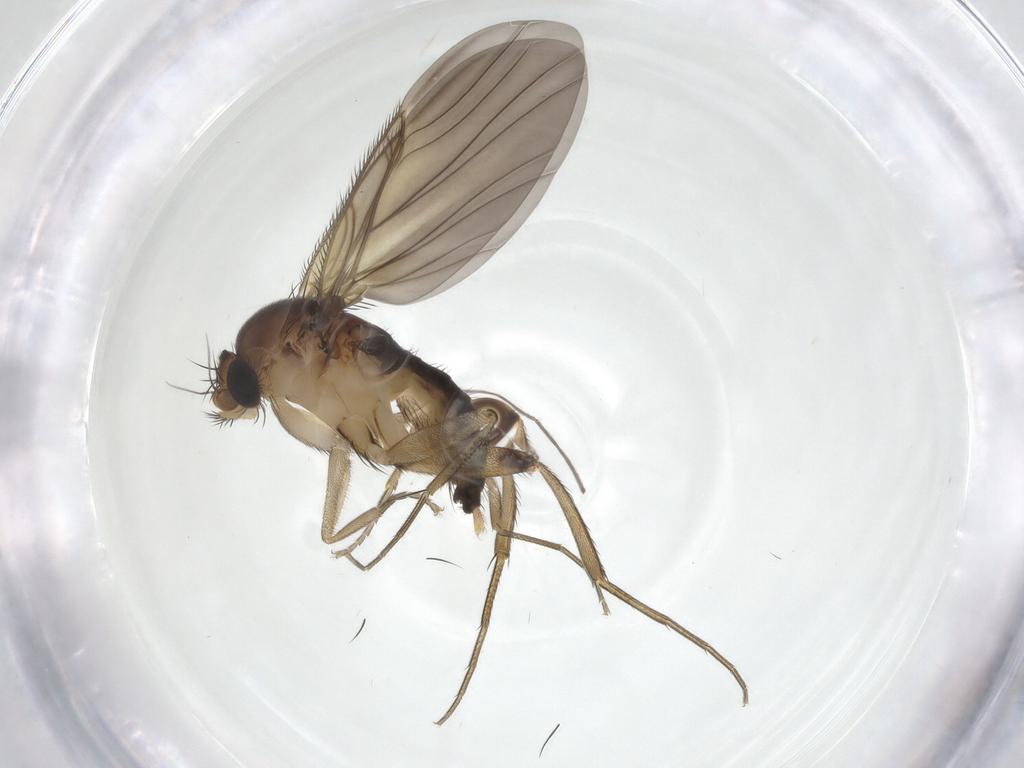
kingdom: Animalia
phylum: Arthropoda
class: Insecta
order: Diptera
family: Phoridae
